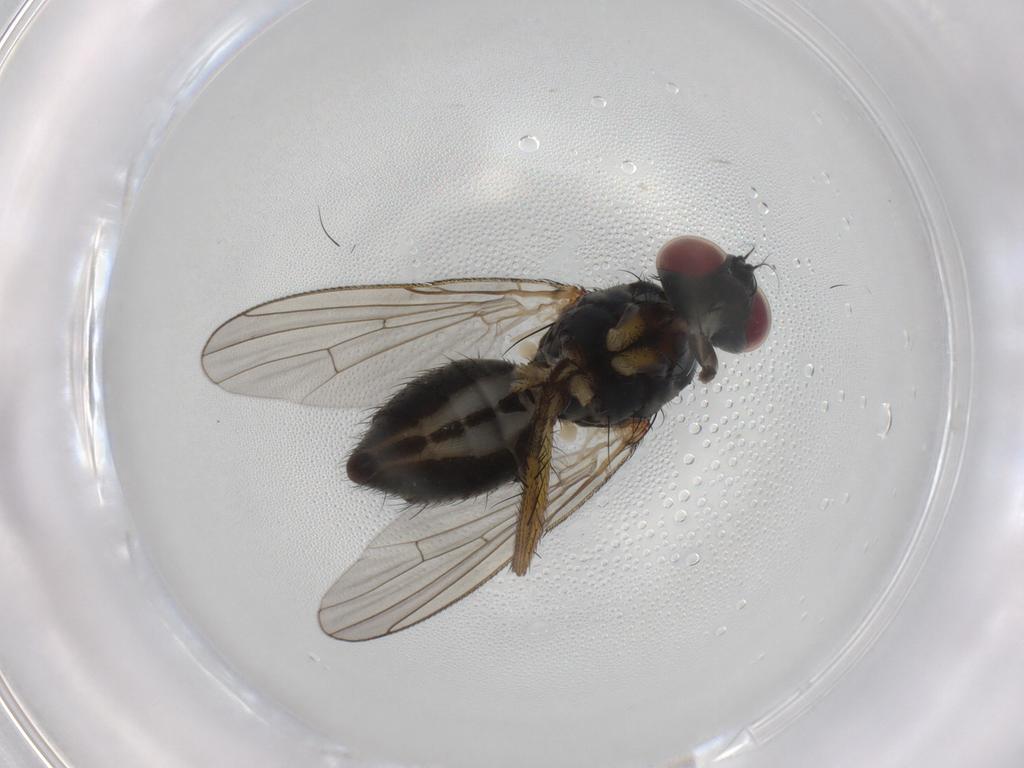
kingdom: Animalia
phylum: Arthropoda
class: Insecta
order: Diptera
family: Muscidae
